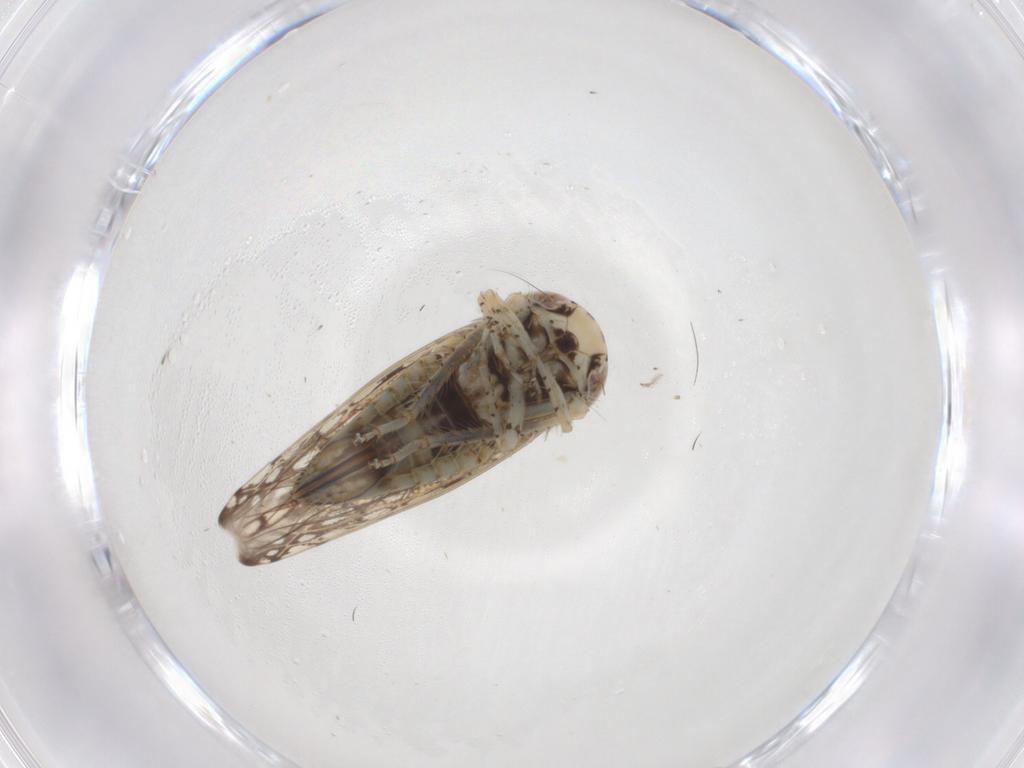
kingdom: Animalia
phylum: Arthropoda
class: Insecta
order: Hemiptera
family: Cicadellidae
